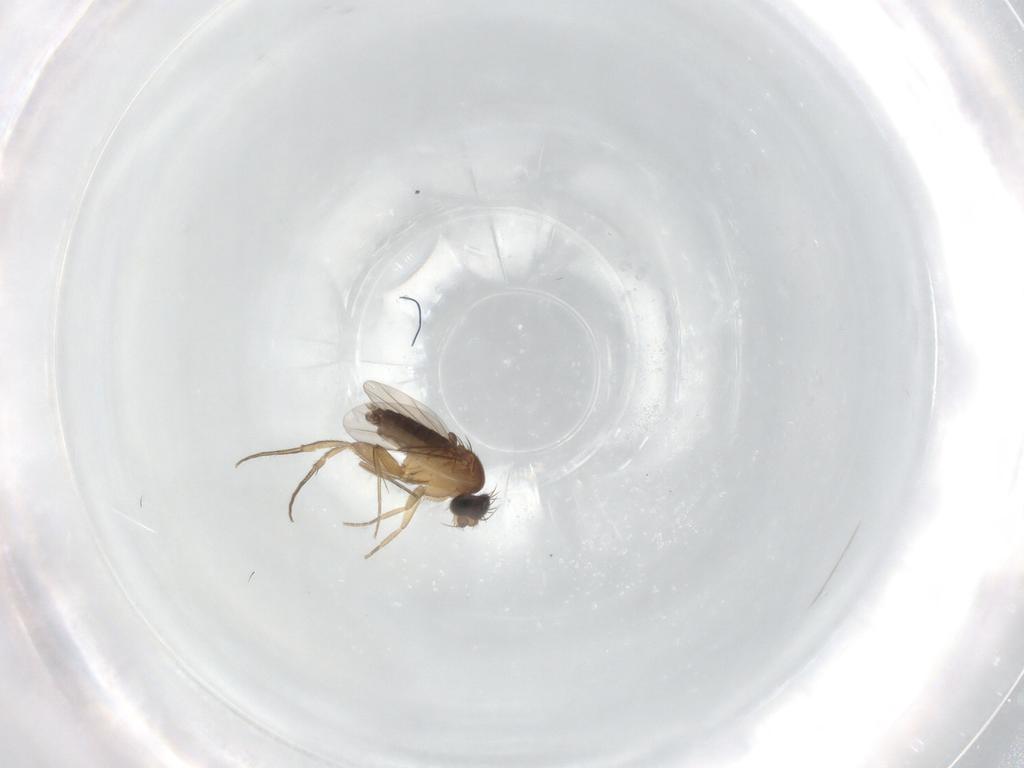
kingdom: Animalia
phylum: Arthropoda
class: Insecta
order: Diptera
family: Phoridae
